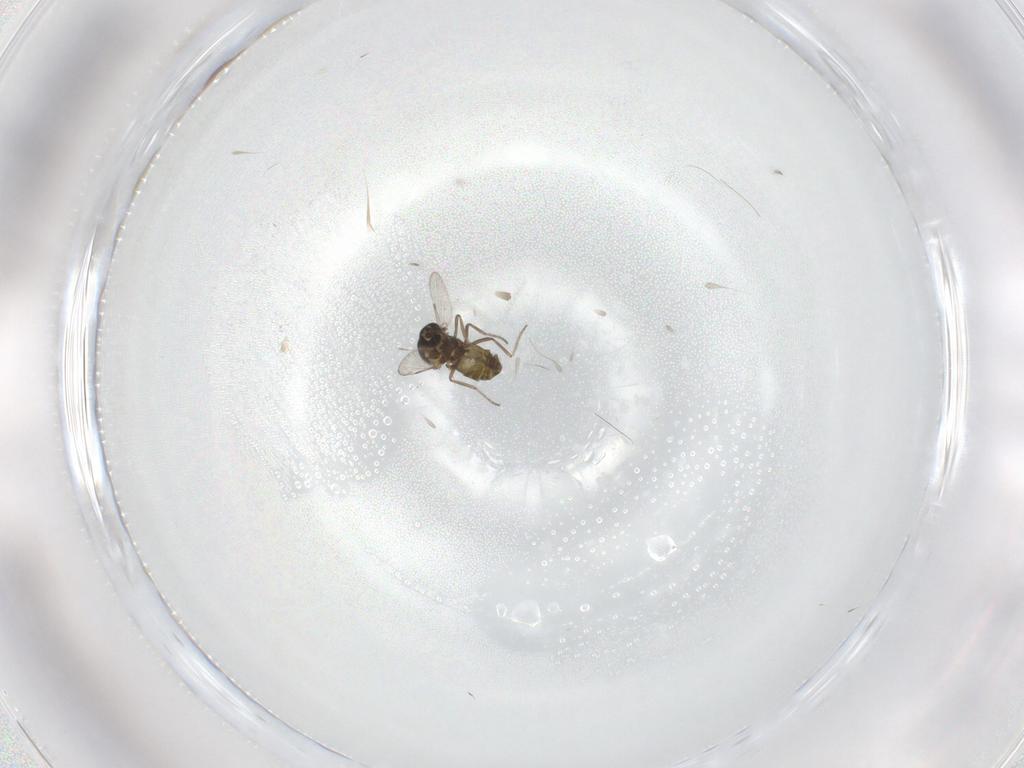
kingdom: Animalia
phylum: Arthropoda
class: Insecta
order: Diptera
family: Ceratopogonidae
